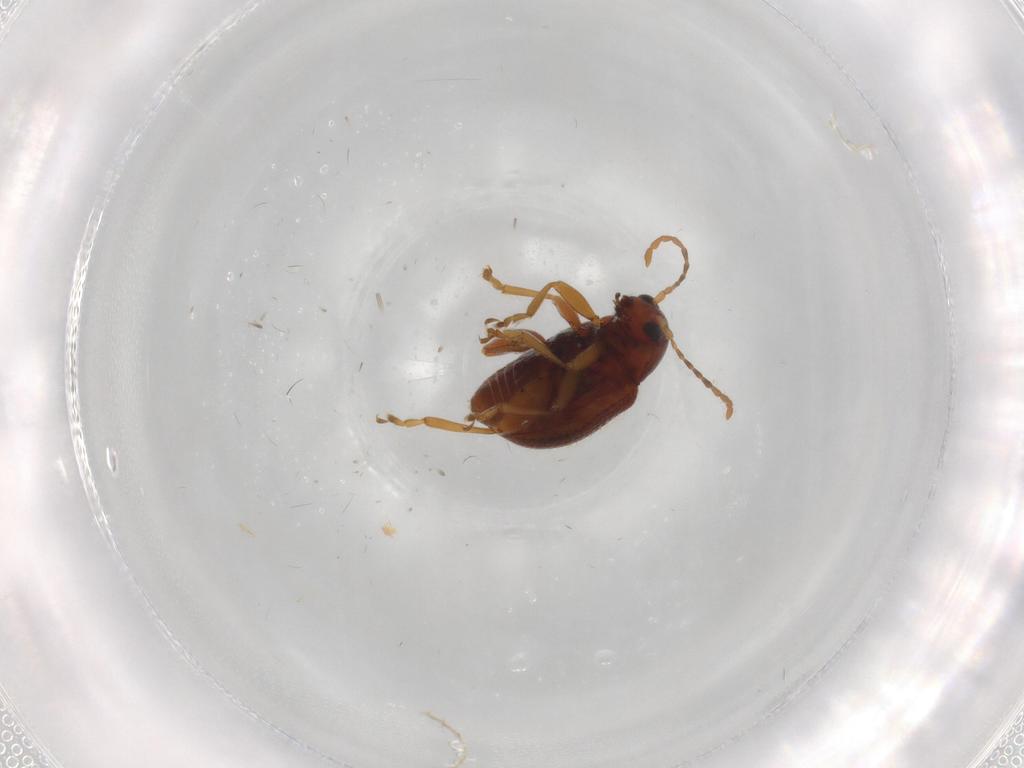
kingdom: Animalia
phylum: Arthropoda
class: Insecta
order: Coleoptera
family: Chrysomelidae
